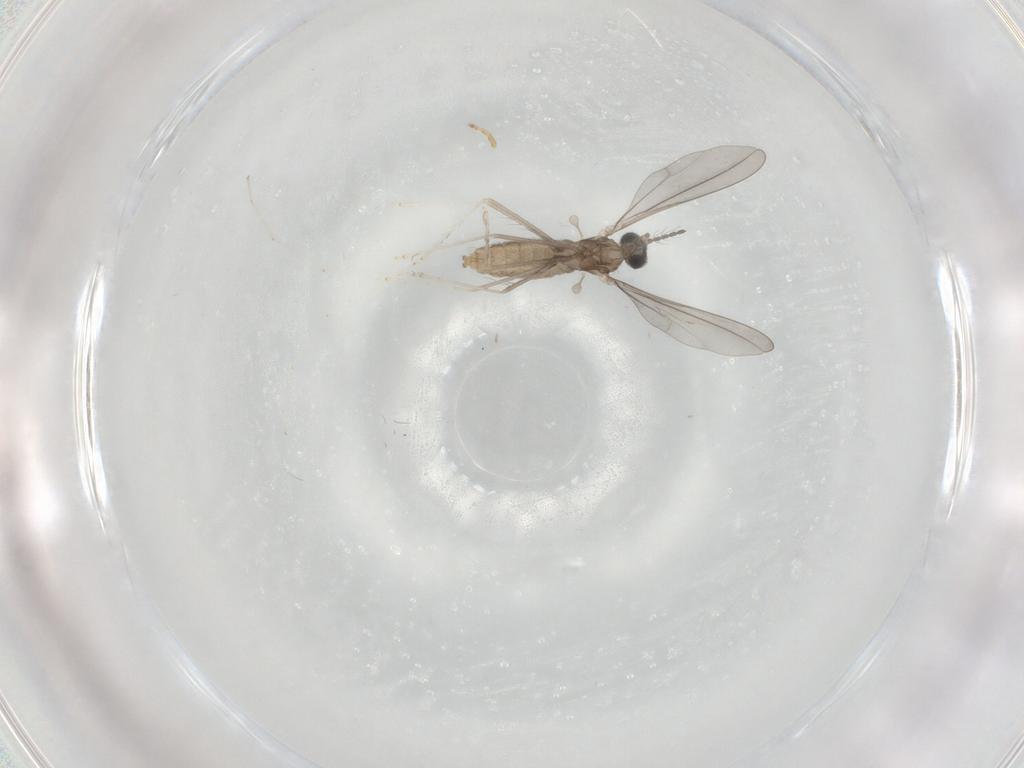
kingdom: Animalia
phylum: Arthropoda
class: Insecta
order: Diptera
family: Cecidomyiidae
